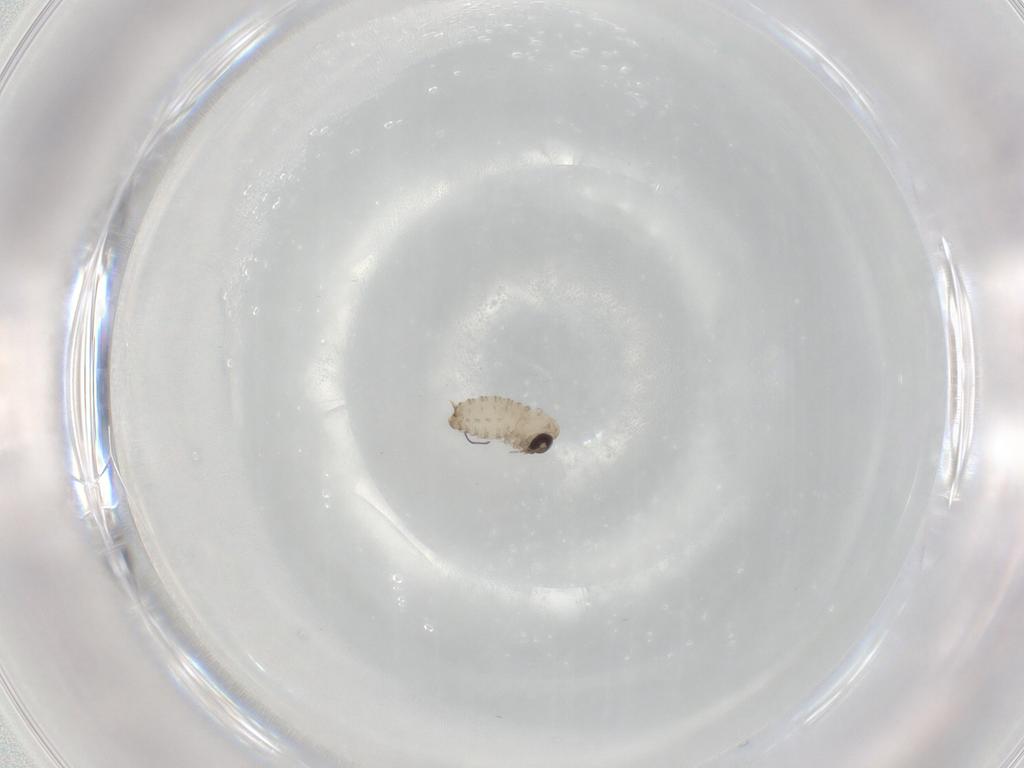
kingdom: Animalia
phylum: Arthropoda
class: Insecta
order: Diptera
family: Psychodidae
